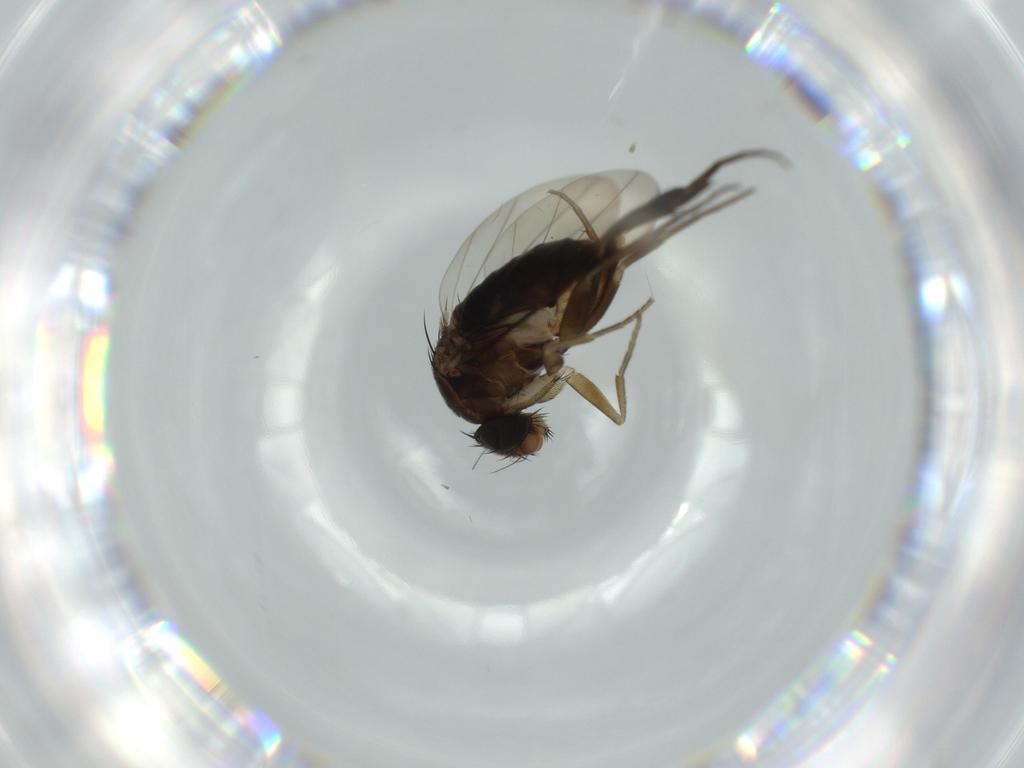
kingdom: Animalia
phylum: Arthropoda
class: Insecta
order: Diptera
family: Phoridae
